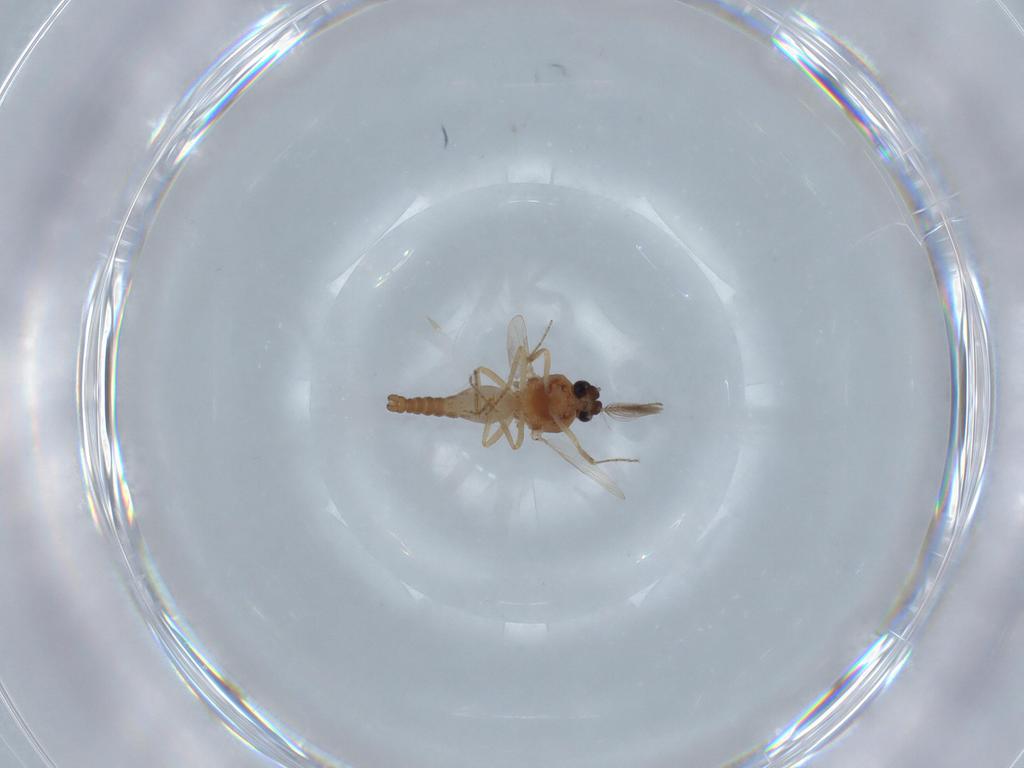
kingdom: Animalia
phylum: Arthropoda
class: Insecta
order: Diptera
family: Ceratopogonidae
